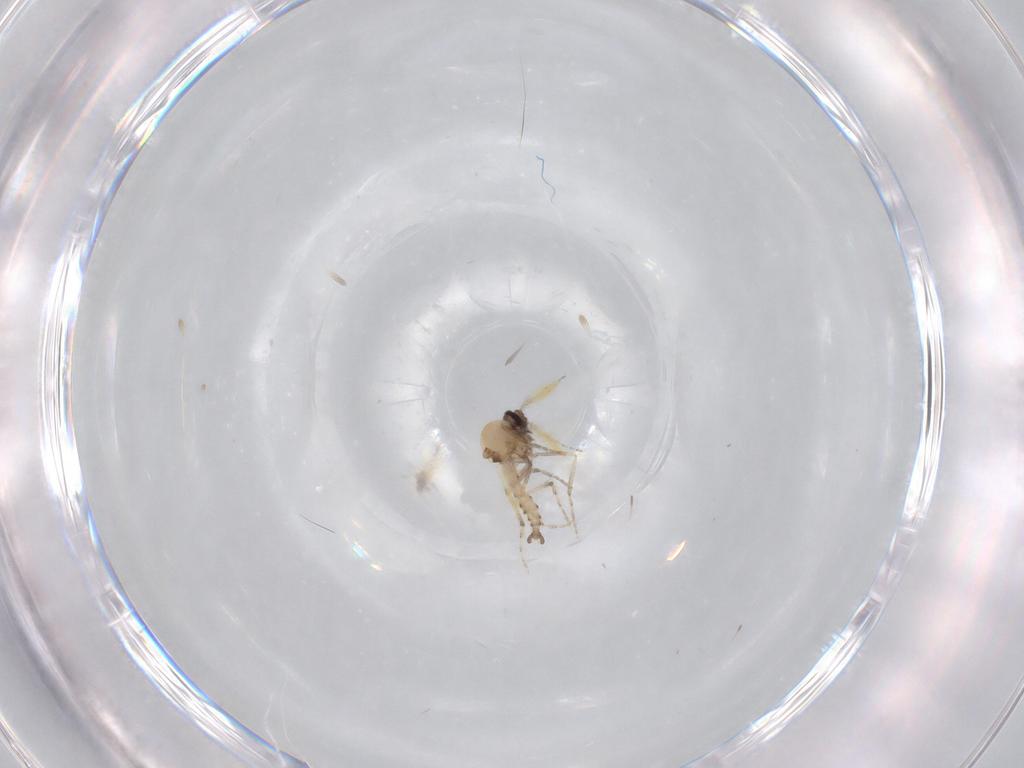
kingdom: Animalia
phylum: Arthropoda
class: Insecta
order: Diptera
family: Ceratopogonidae
